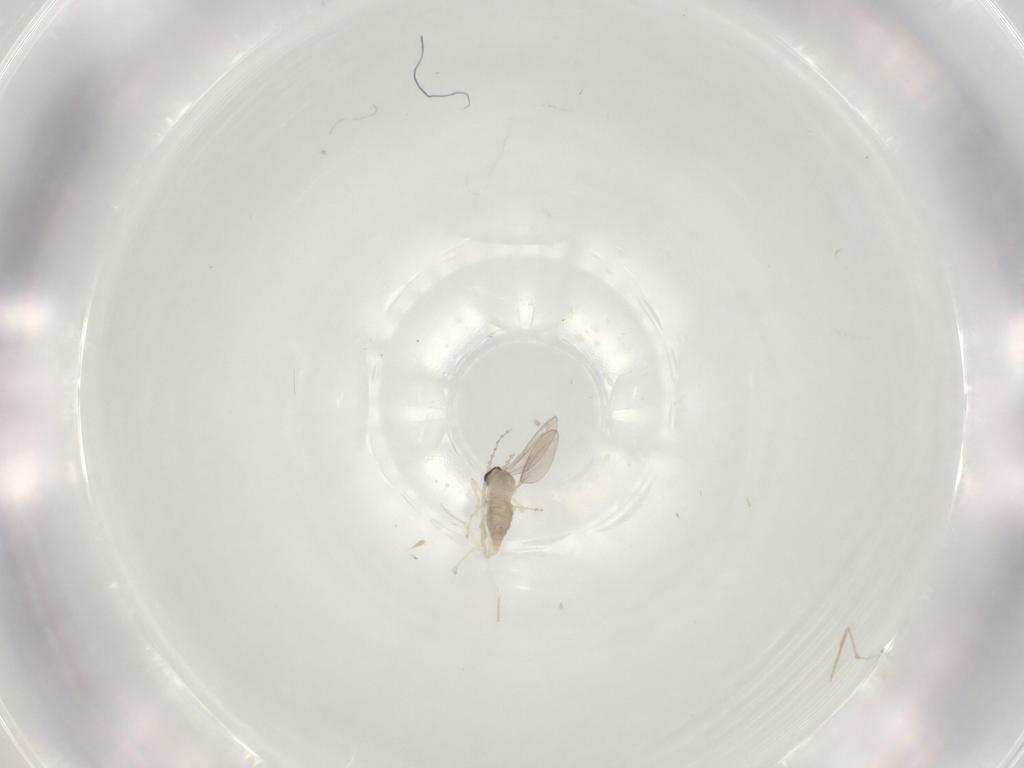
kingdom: Animalia
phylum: Arthropoda
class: Insecta
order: Diptera
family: Cecidomyiidae
